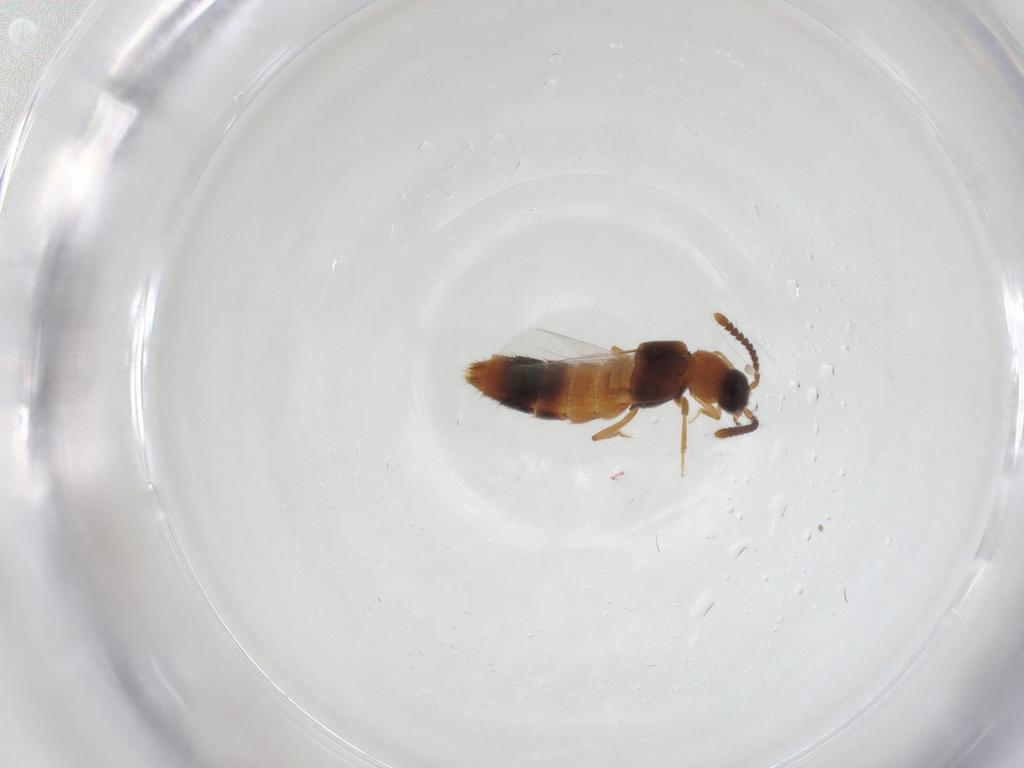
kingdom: Animalia
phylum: Arthropoda
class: Insecta
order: Coleoptera
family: Staphylinidae
